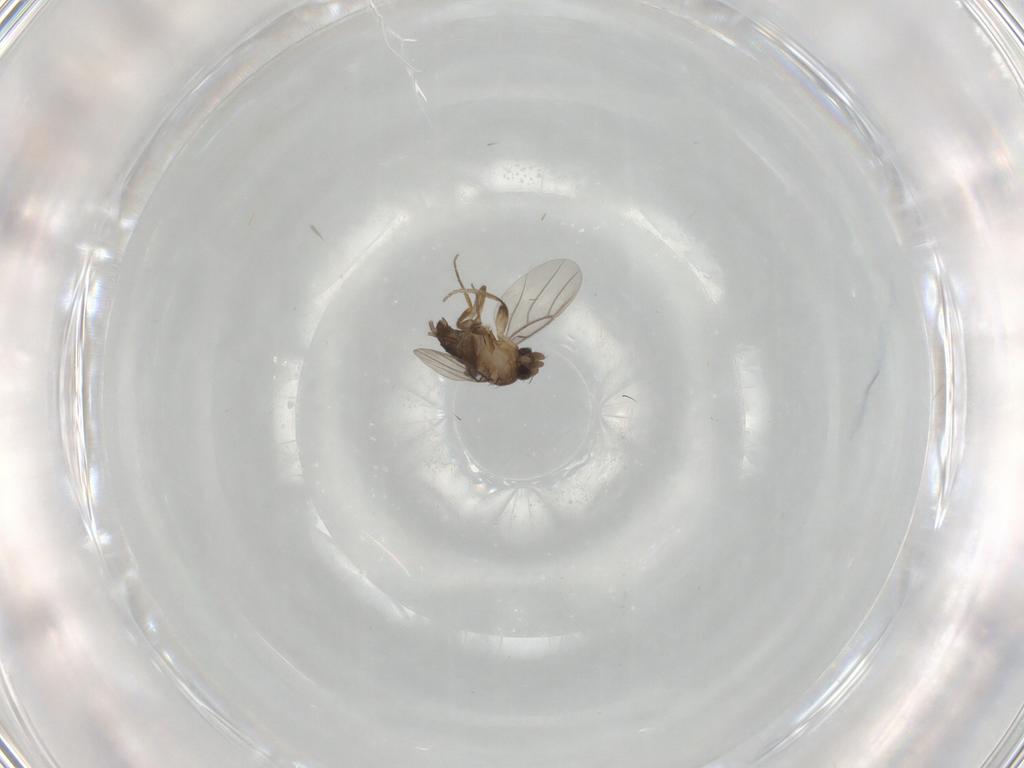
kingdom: Animalia
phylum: Arthropoda
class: Insecta
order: Diptera
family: Phoridae
